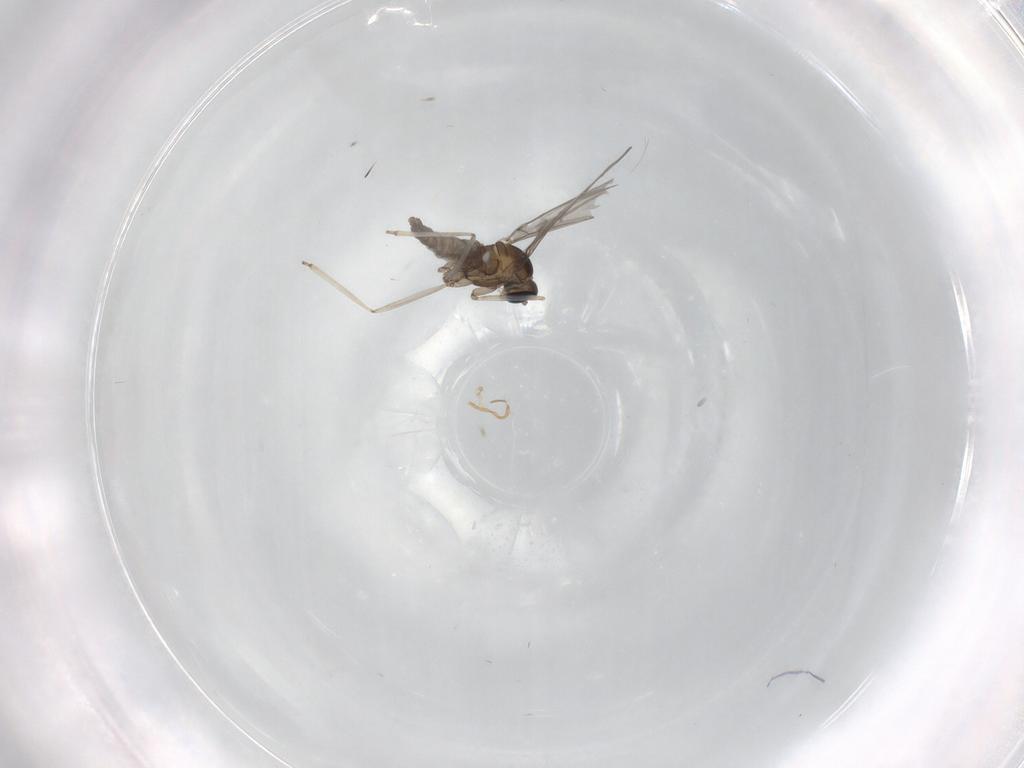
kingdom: Animalia
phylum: Arthropoda
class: Insecta
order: Diptera
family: Cecidomyiidae
